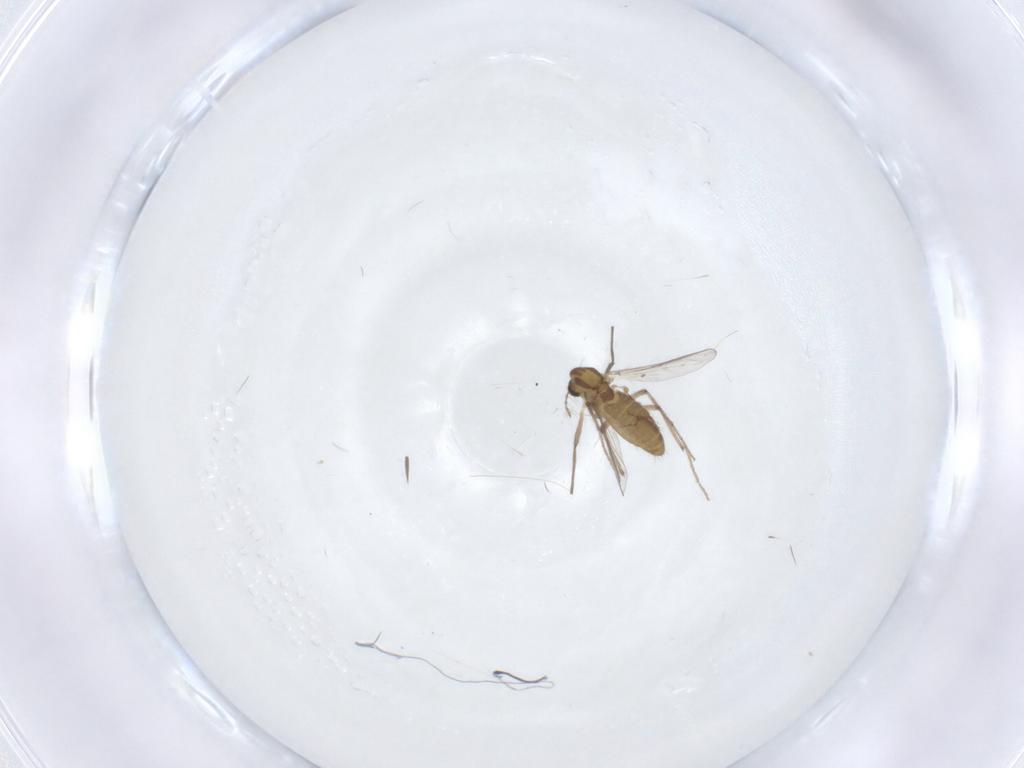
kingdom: Animalia
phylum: Arthropoda
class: Insecta
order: Diptera
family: Chironomidae
